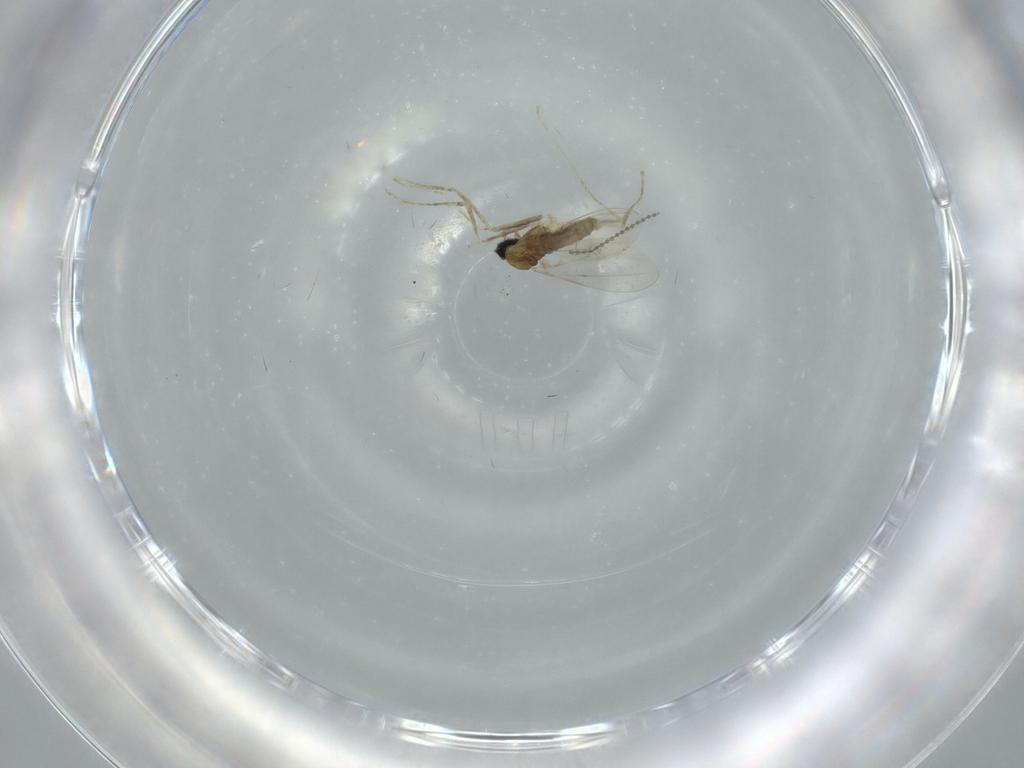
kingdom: Animalia
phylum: Arthropoda
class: Insecta
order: Diptera
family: Cecidomyiidae
